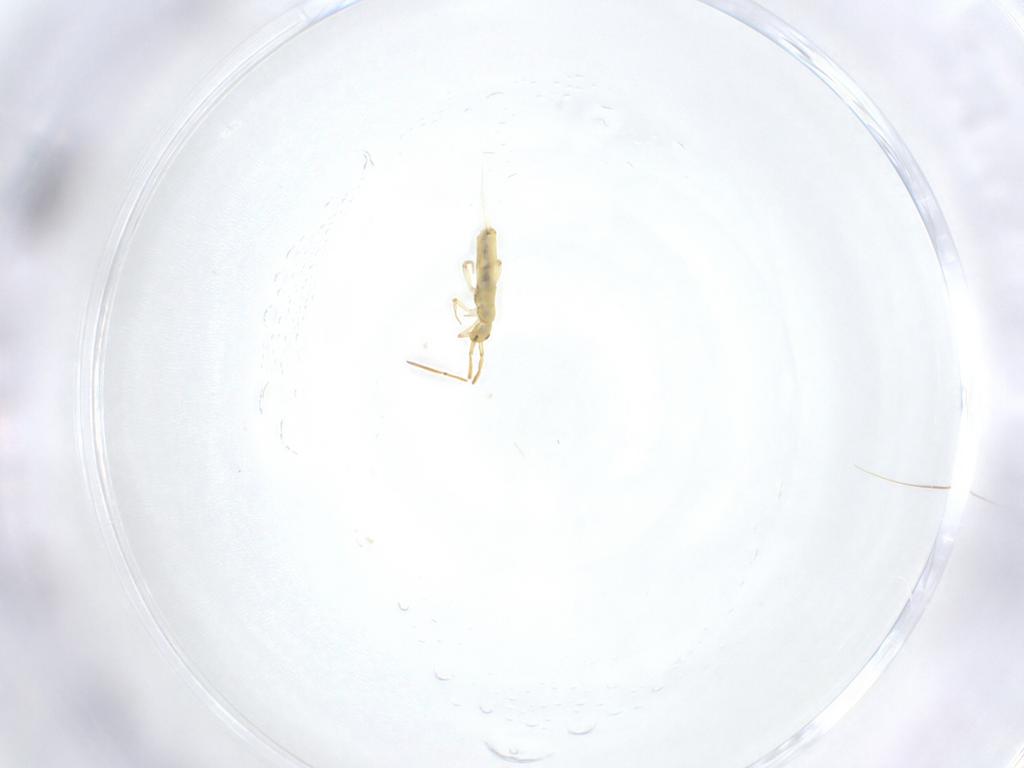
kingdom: Animalia
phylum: Arthropoda
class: Collembola
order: Entomobryomorpha
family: Entomobryidae
